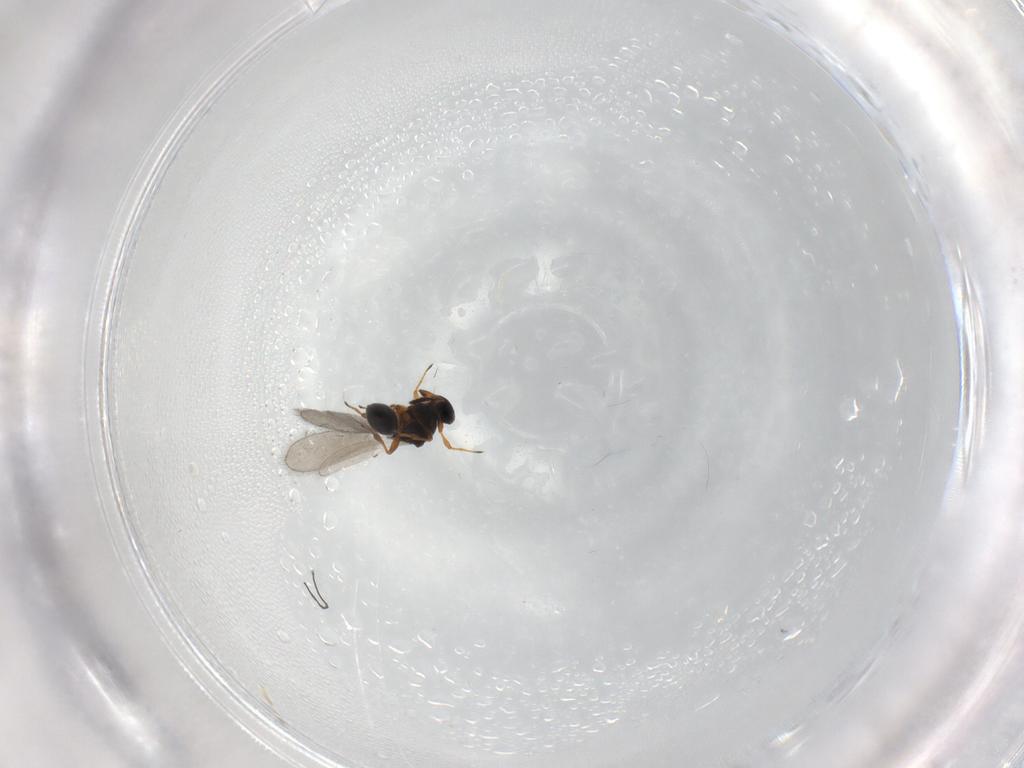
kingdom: Animalia
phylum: Arthropoda
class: Insecta
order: Hymenoptera
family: Platygastridae
